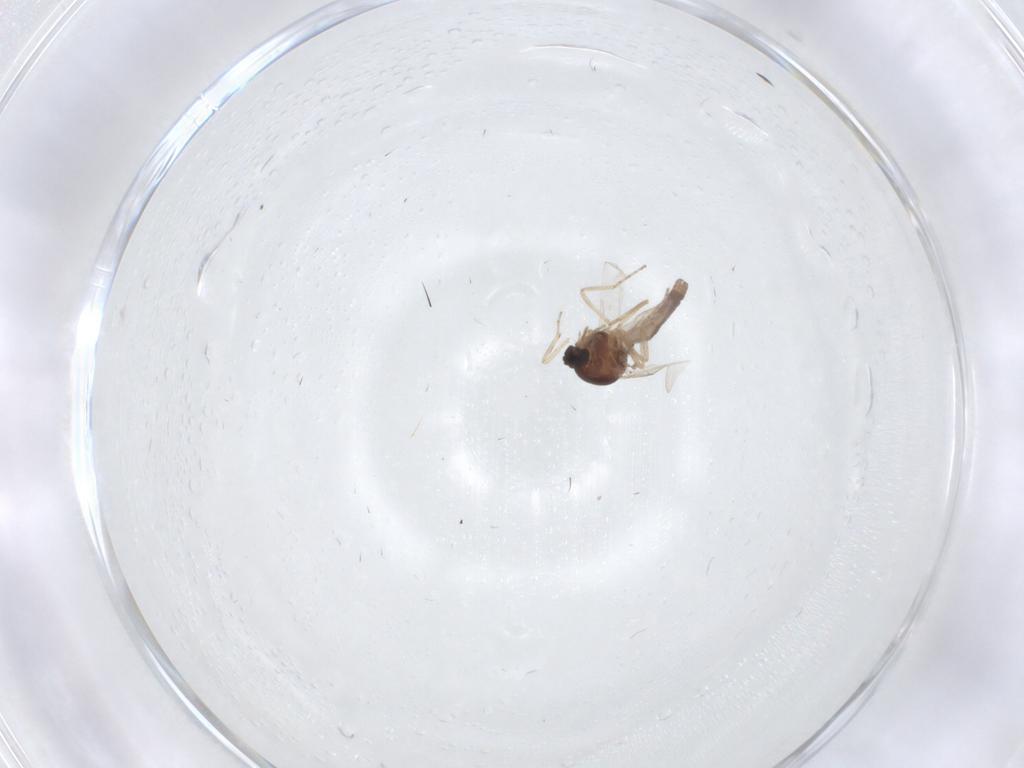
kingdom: Animalia
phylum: Arthropoda
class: Insecta
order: Diptera
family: Ceratopogonidae
